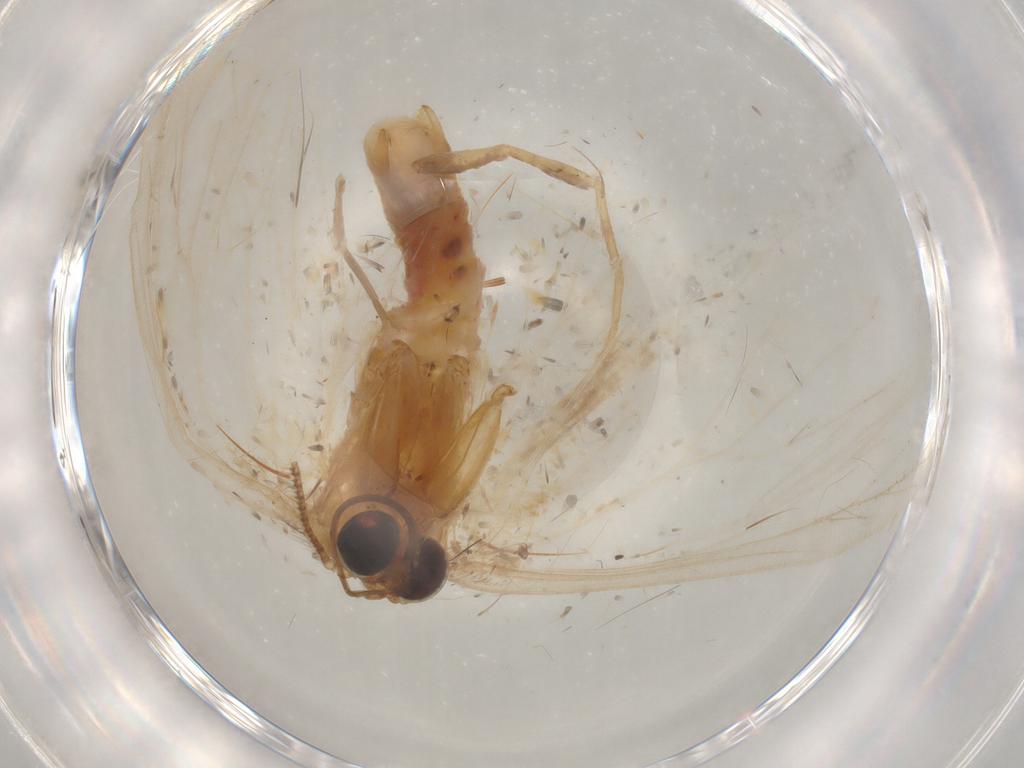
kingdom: Animalia
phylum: Arthropoda
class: Insecta
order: Lepidoptera
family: Geometridae
